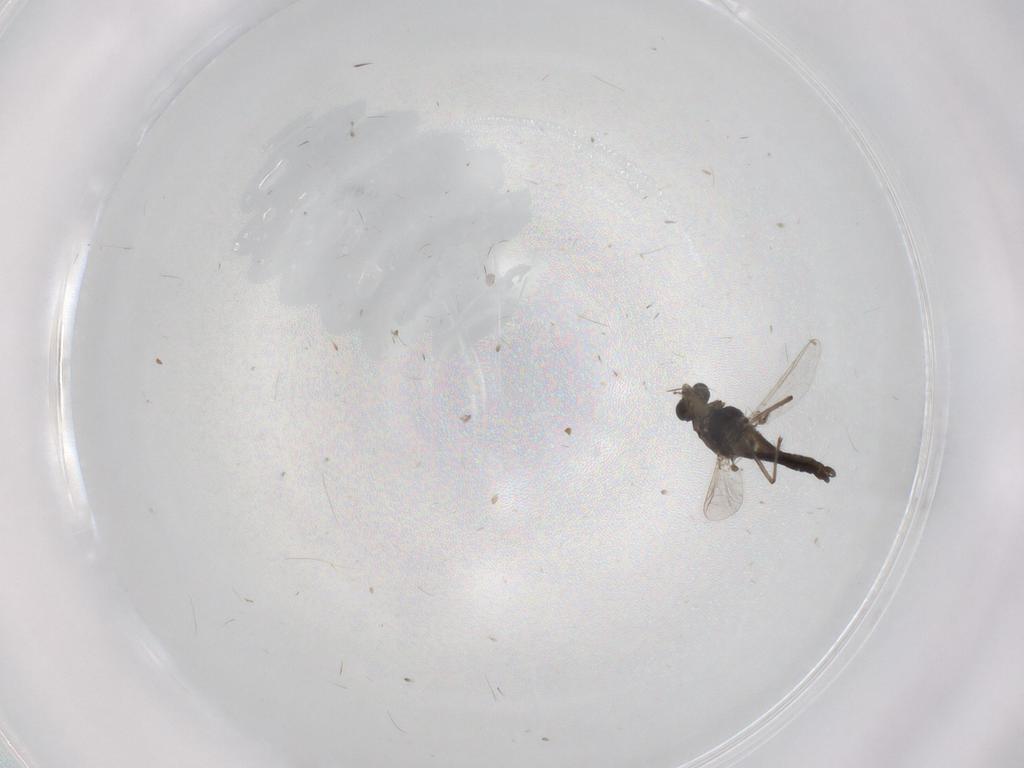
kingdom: Animalia
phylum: Arthropoda
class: Insecta
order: Diptera
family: Chironomidae
